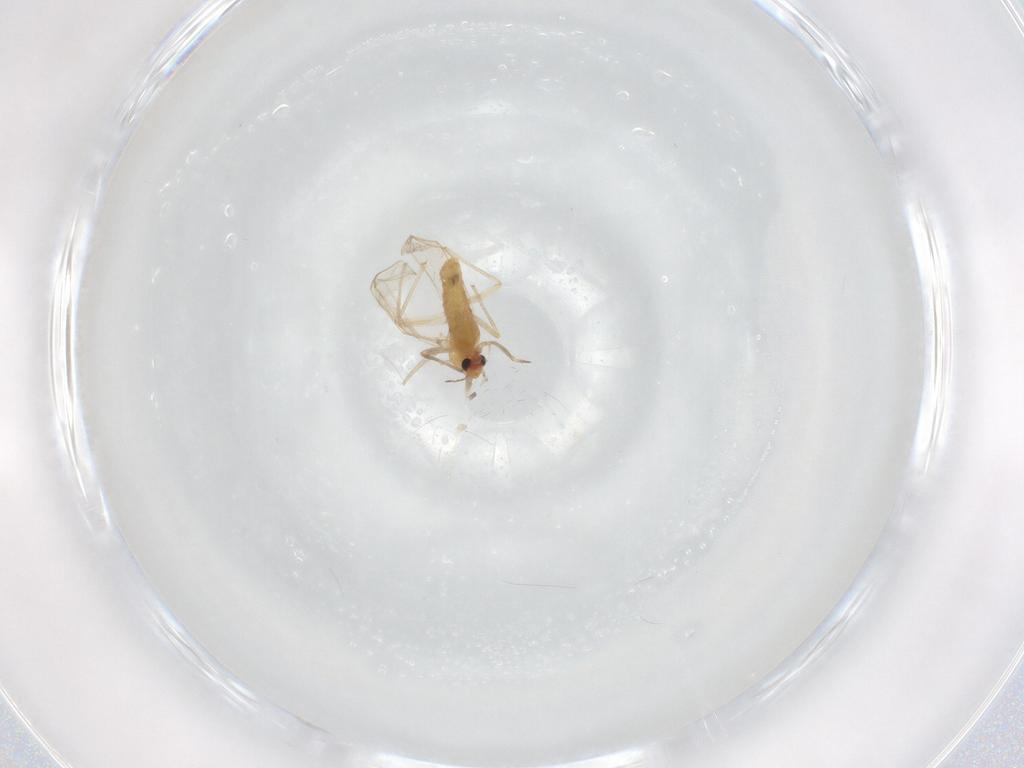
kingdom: Animalia
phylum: Arthropoda
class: Insecta
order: Diptera
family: Chironomidae
